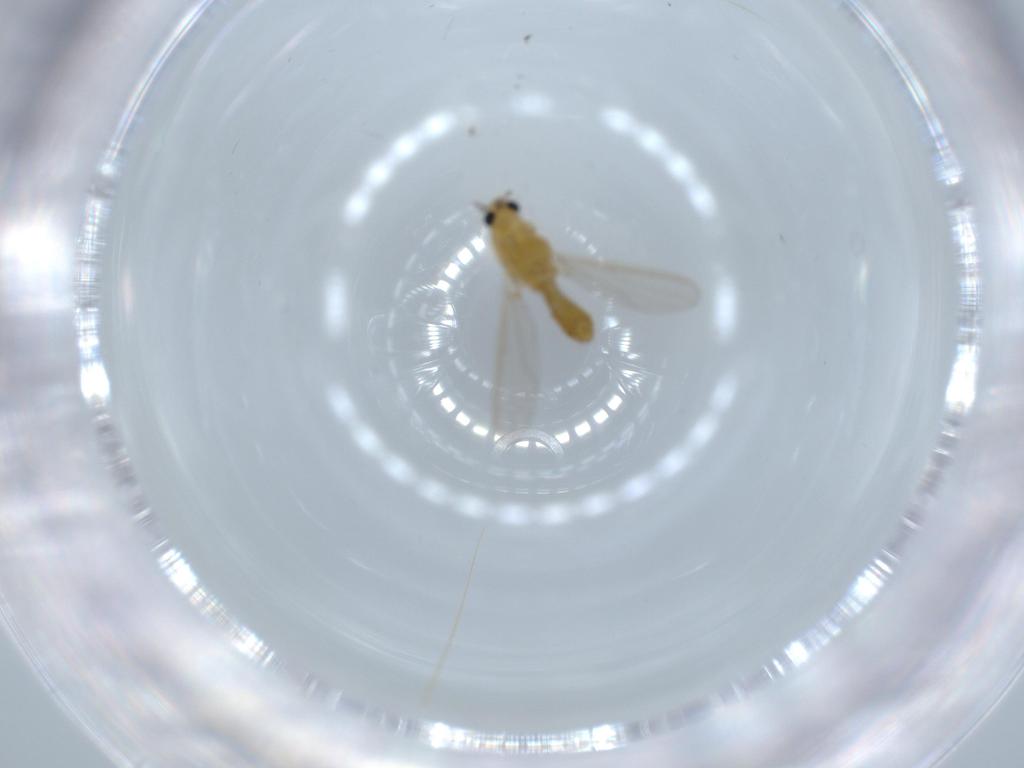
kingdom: Animalia
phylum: Arthropoda
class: Insecta
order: Diptera
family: Chironomidae
